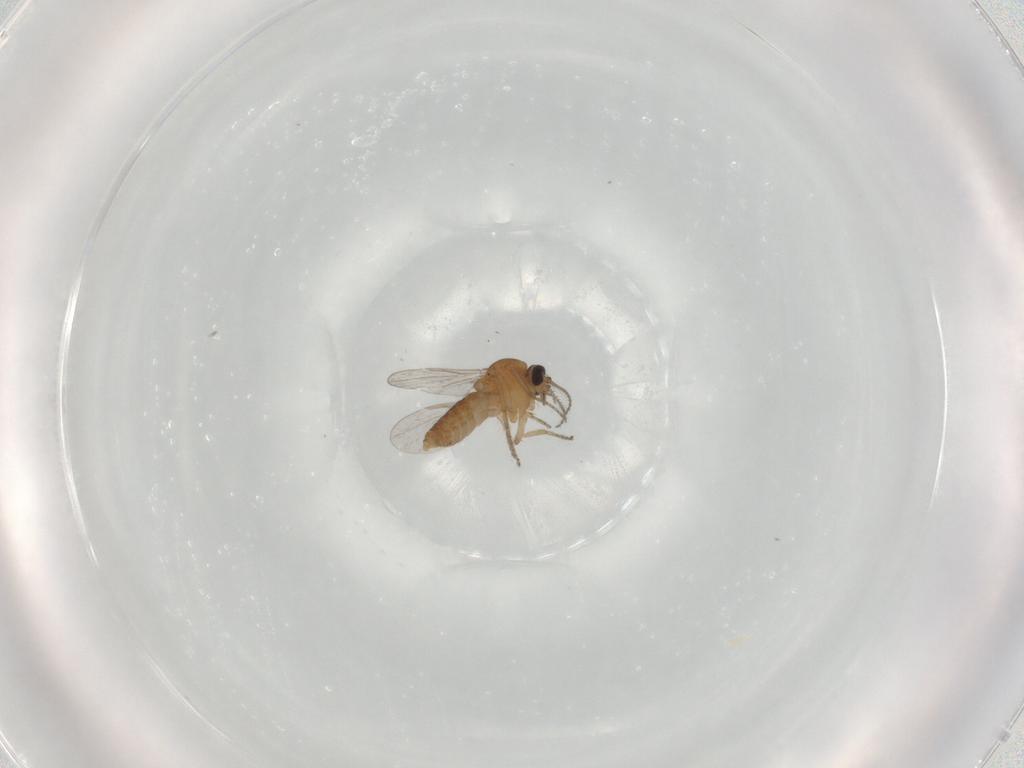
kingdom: Animalia
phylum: Arthropoda
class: Insecta
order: Diptera
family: Ceratopogonidae
